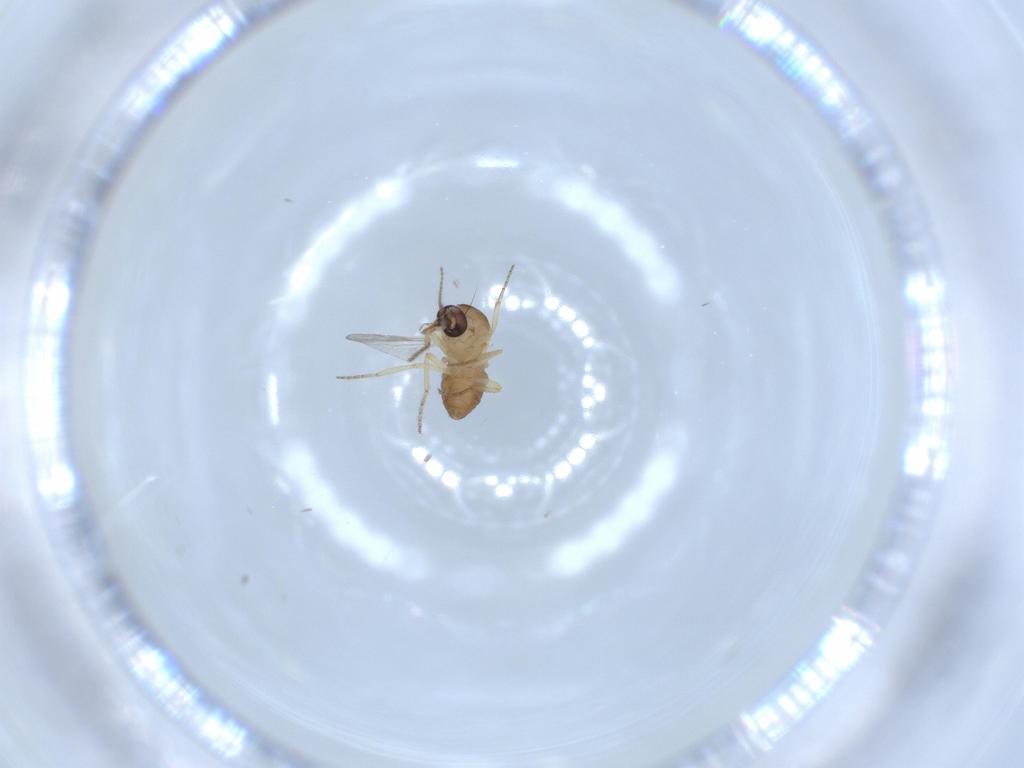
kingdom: Animalia
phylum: Arthropoda
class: Insecta
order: Diptera
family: Ceratopogonidae
